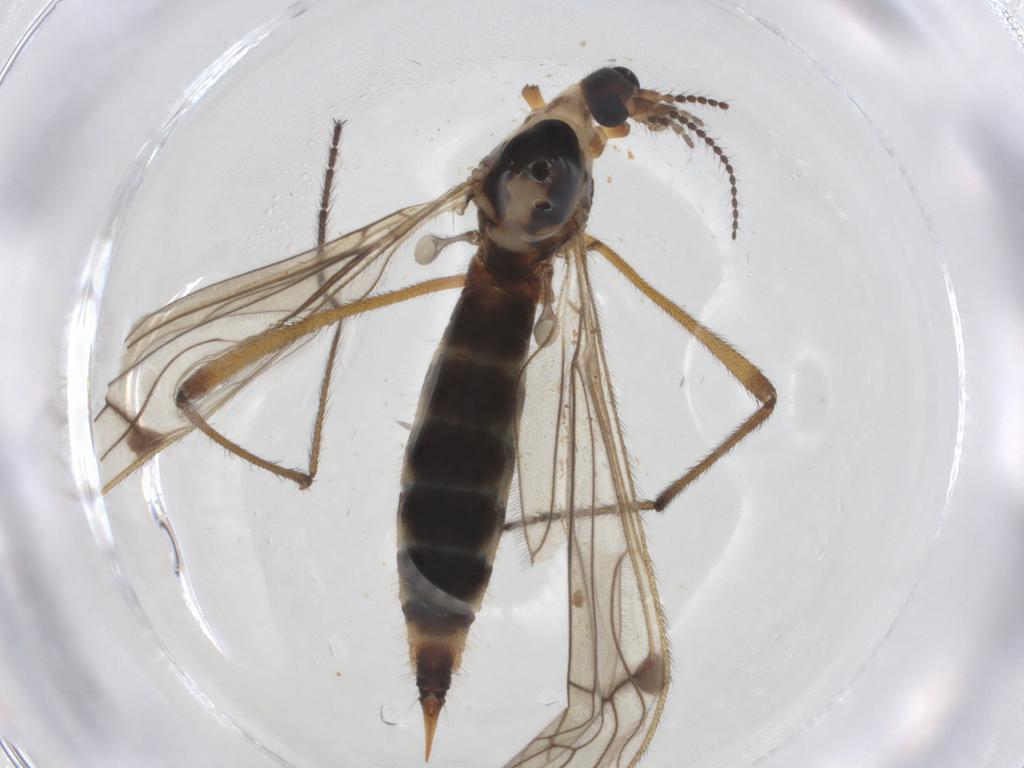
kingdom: Animalia
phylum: Arthropoda
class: Insecta
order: Diptera
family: Limoniidae
